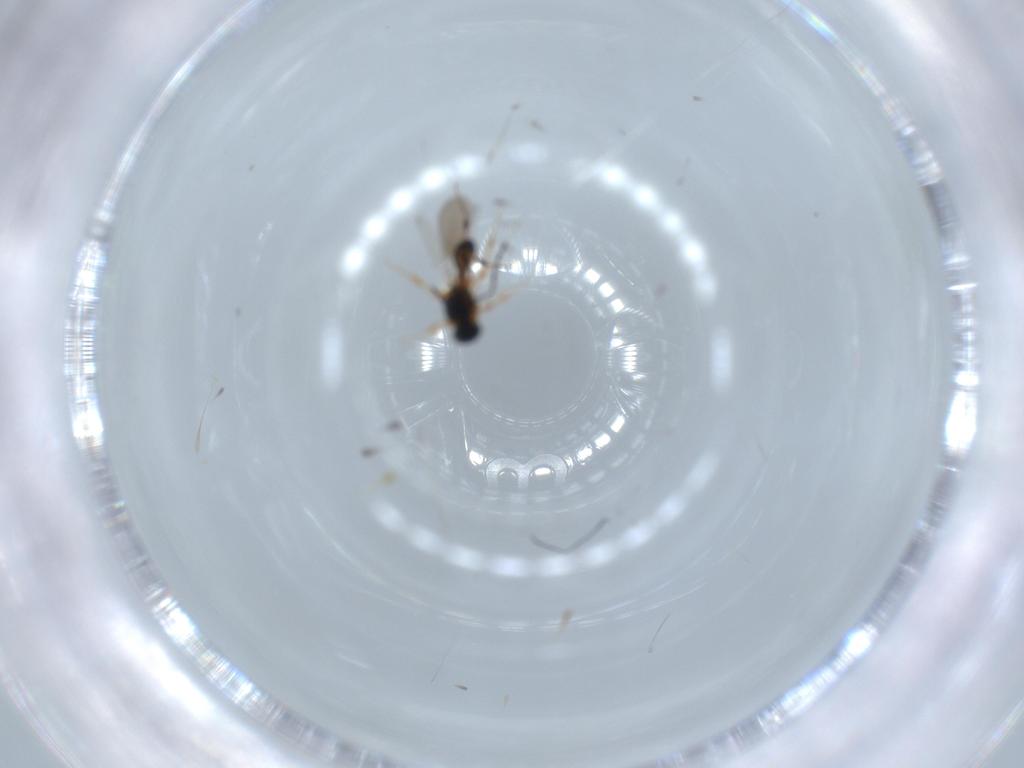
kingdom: Animalia
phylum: Arthropoda
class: Insecta
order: Hymenoptera
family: Platygastridae
